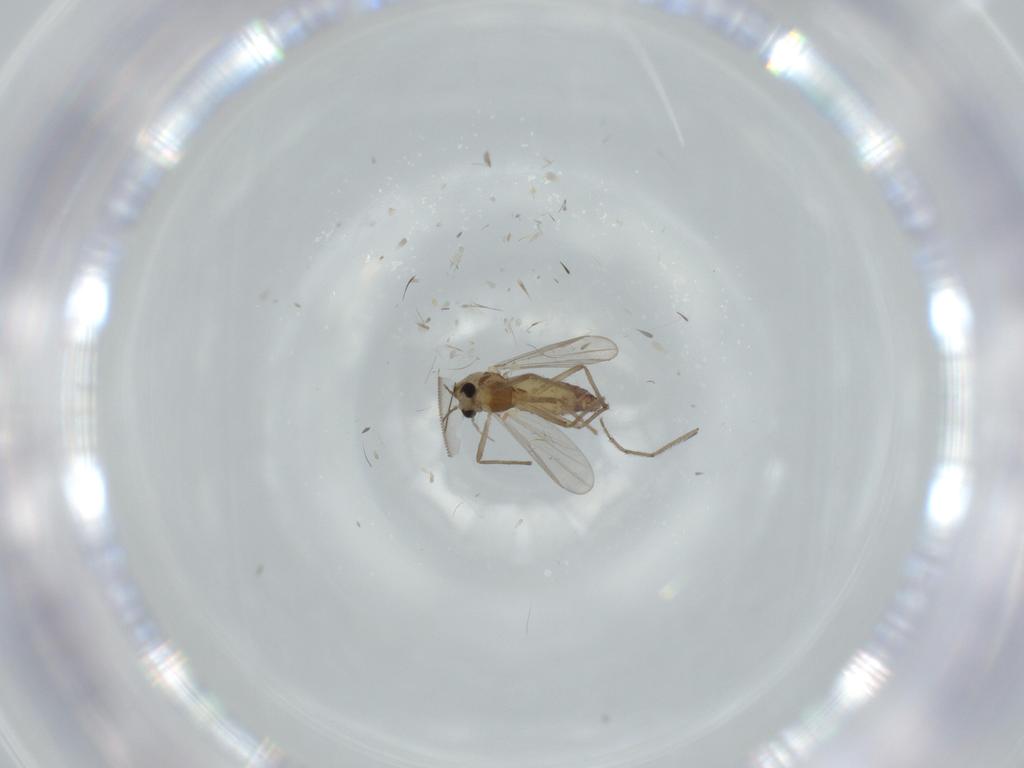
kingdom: Animalia
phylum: Arthropoda
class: Insecta
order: Diptera
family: Chironomidae
